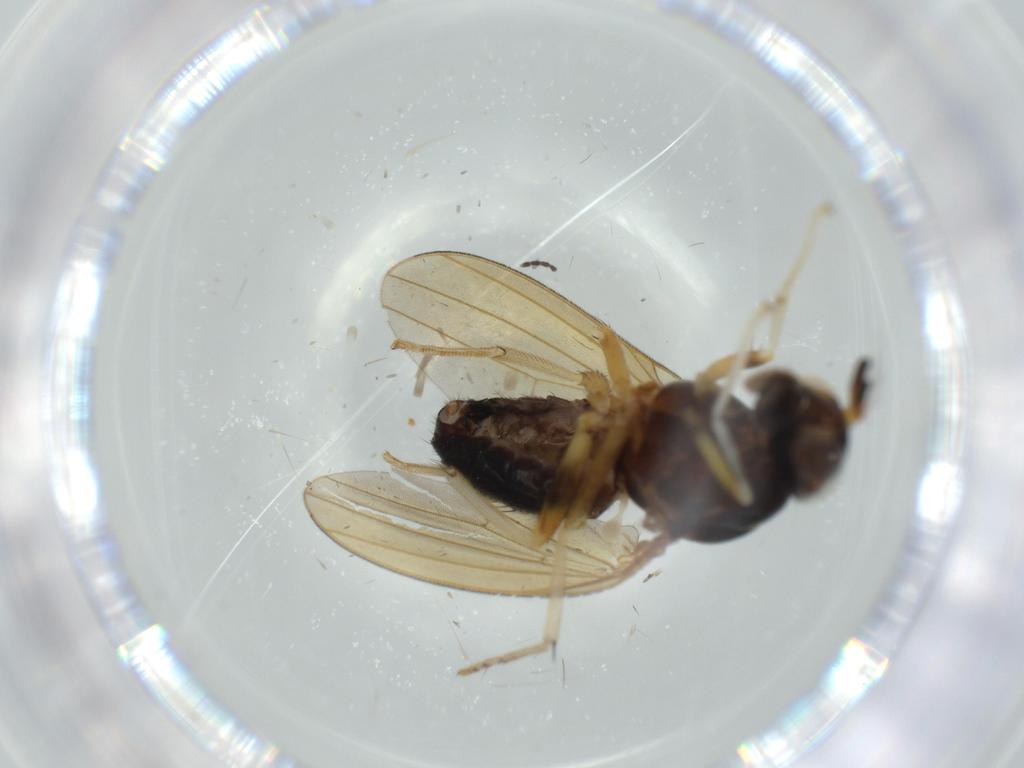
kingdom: Animalia
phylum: Arthropoda
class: Insecta
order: Diptera
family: Lauxaniidae
